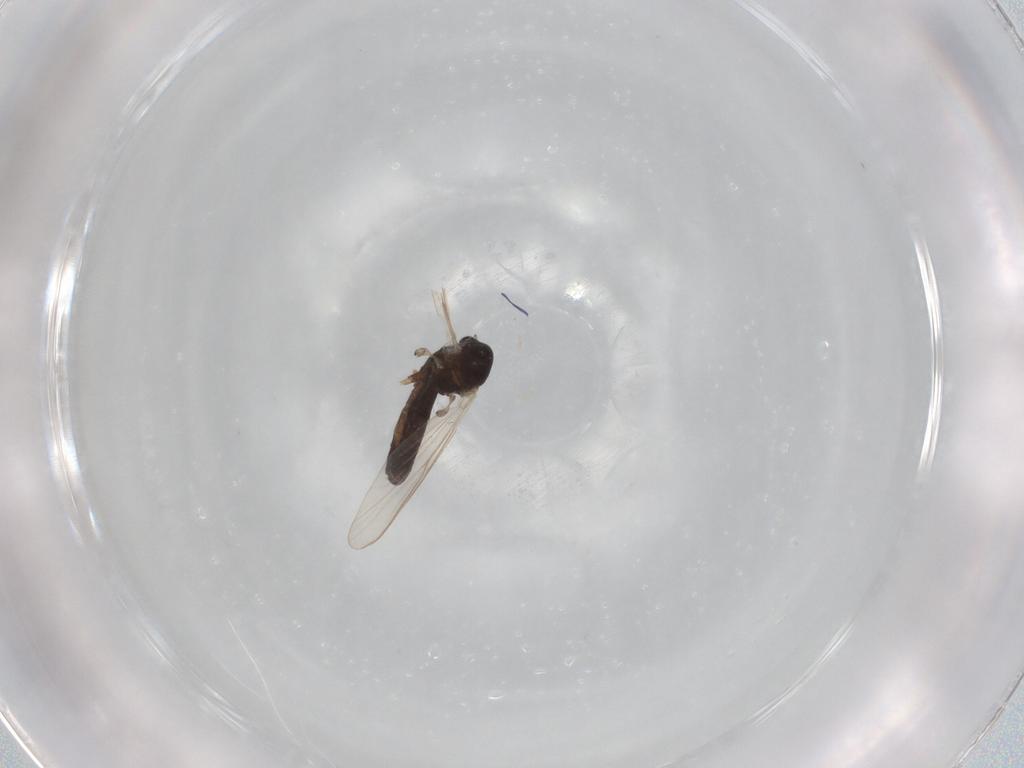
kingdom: Animalia
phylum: Arthropoda
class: Insecta
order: Diptera
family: Chironomidae
